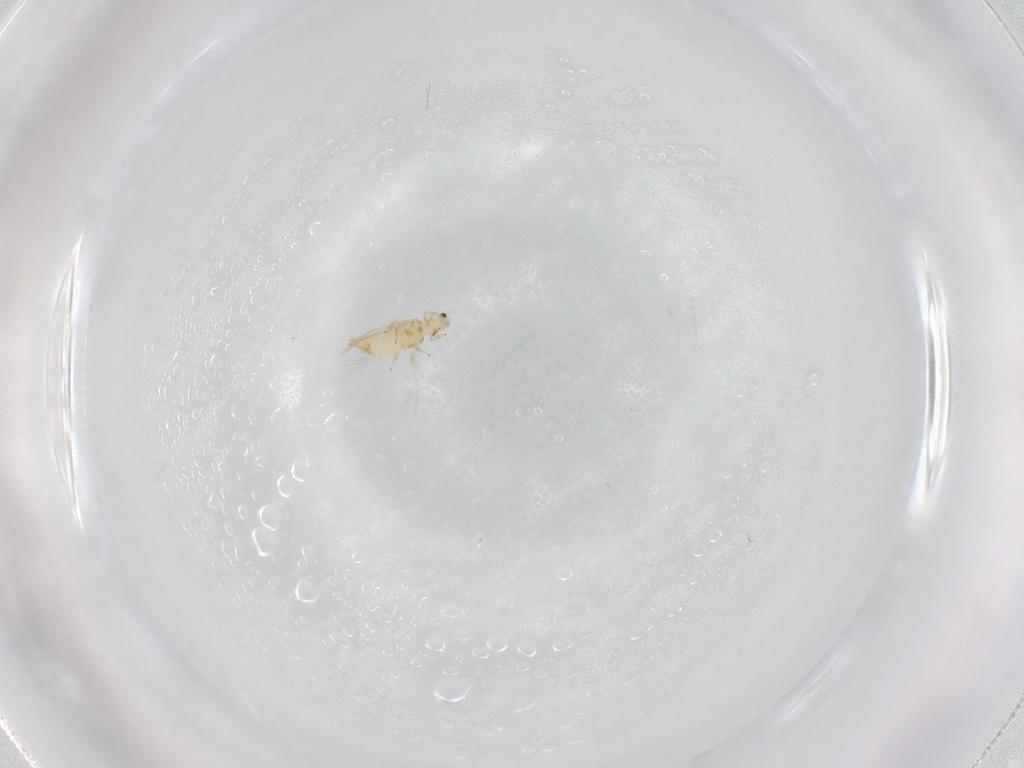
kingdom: Animalia
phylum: Arthropoda
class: Insecta
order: Thysanoptera
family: Thripidae
